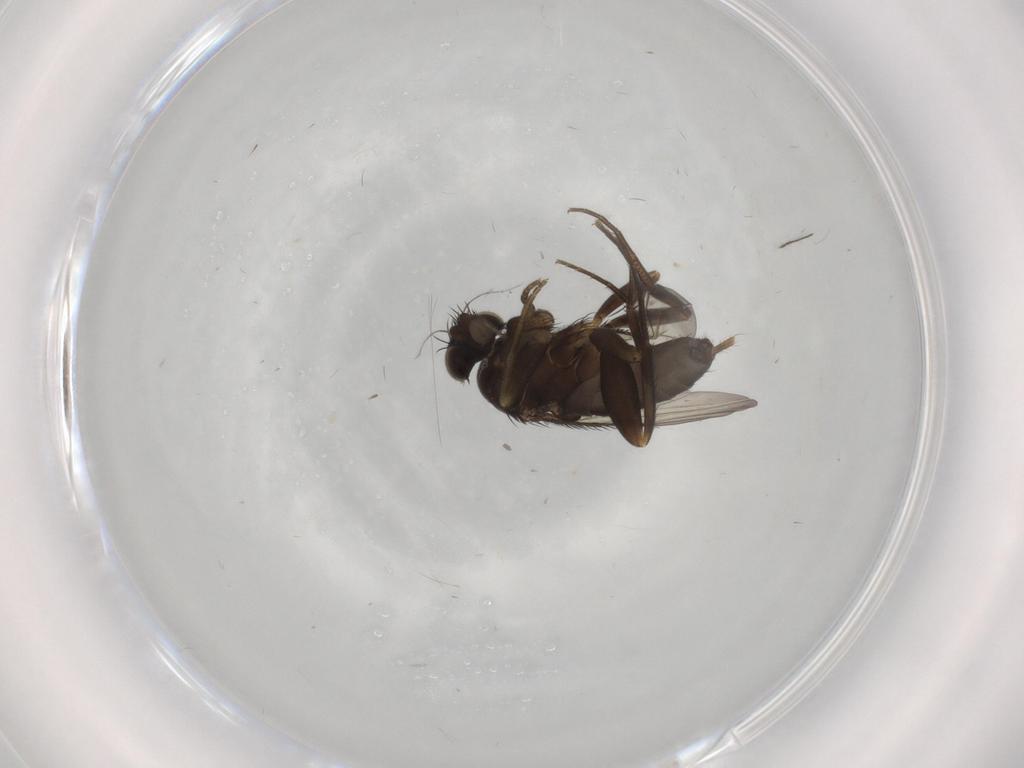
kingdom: Animalia
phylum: Arthropoda
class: Insecta
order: Diptera
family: Phoridae
